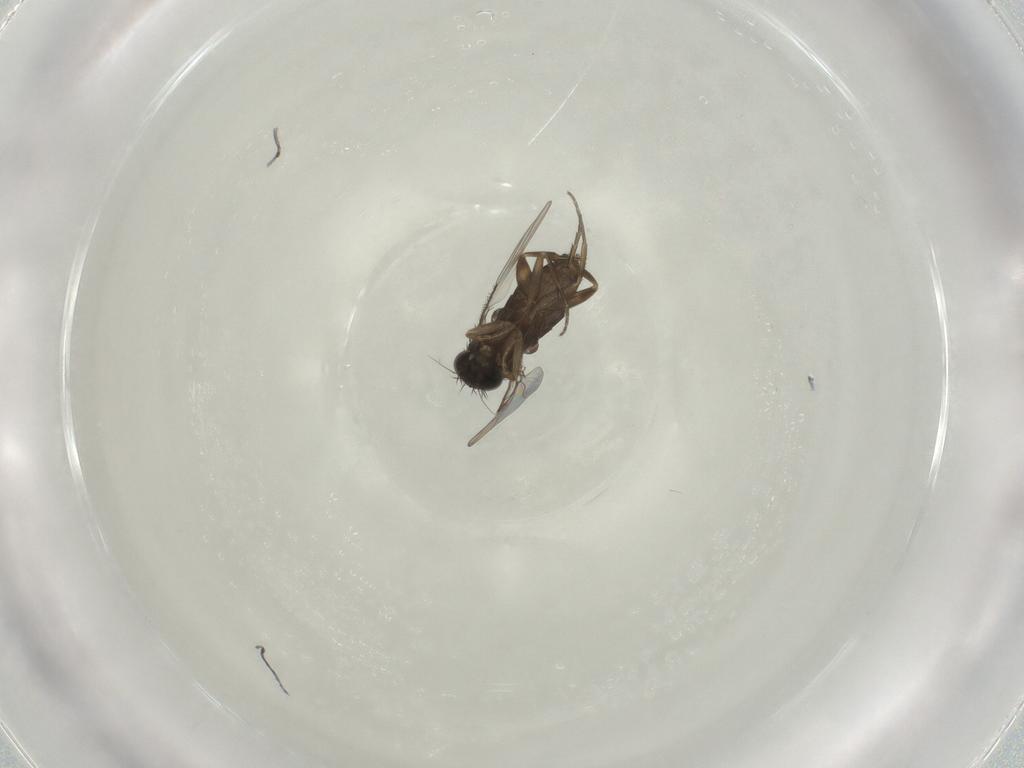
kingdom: Animalia
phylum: Arthropoda
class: Insecta
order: Diptera
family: Phoridae
